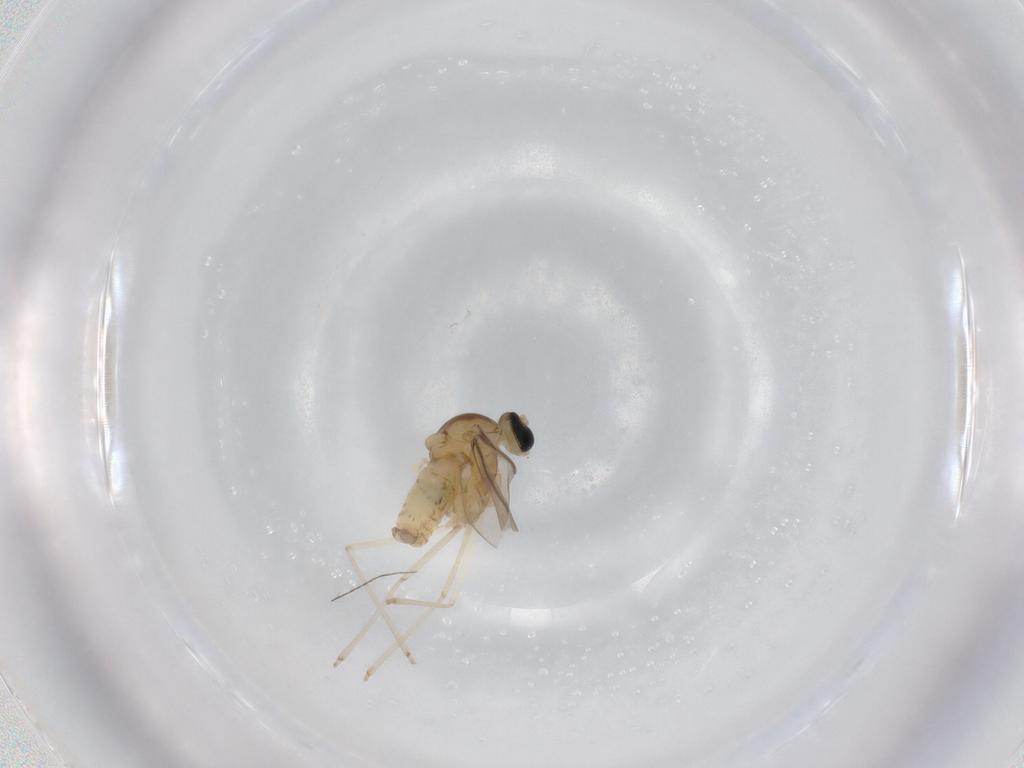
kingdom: Animalia
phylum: Arthropoda
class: Insecta
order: Diptera
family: Cecidomyiidae
